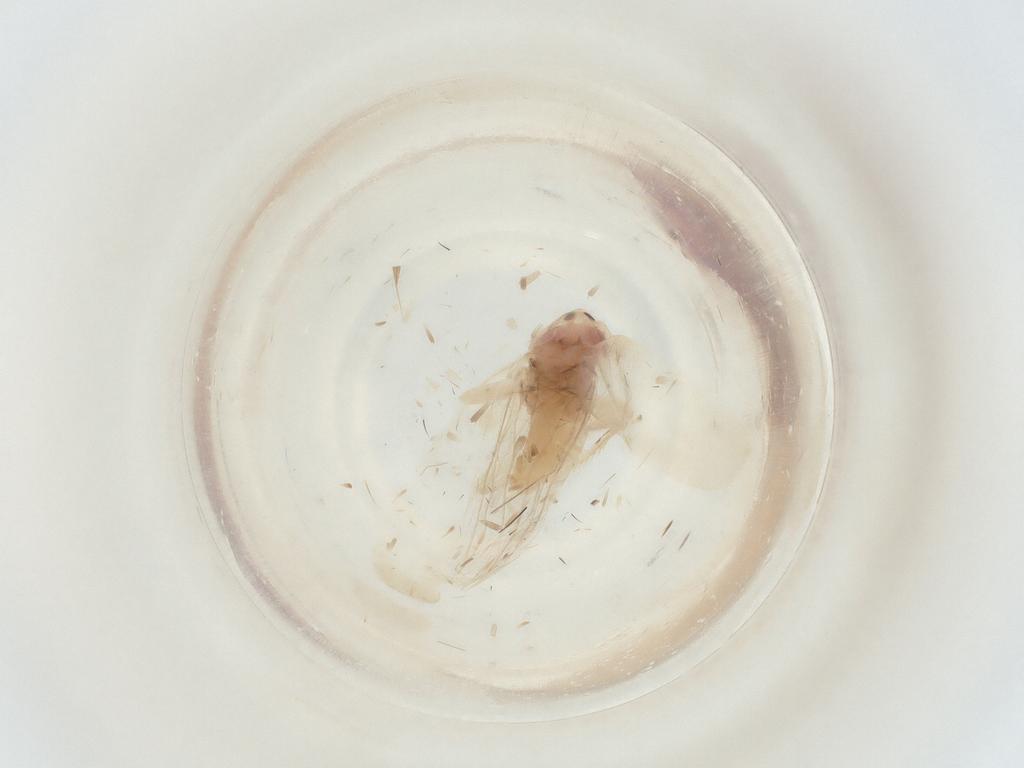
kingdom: Animalia
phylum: Arthropoda
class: Insecta
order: Hemiptera
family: Cicadellidae
